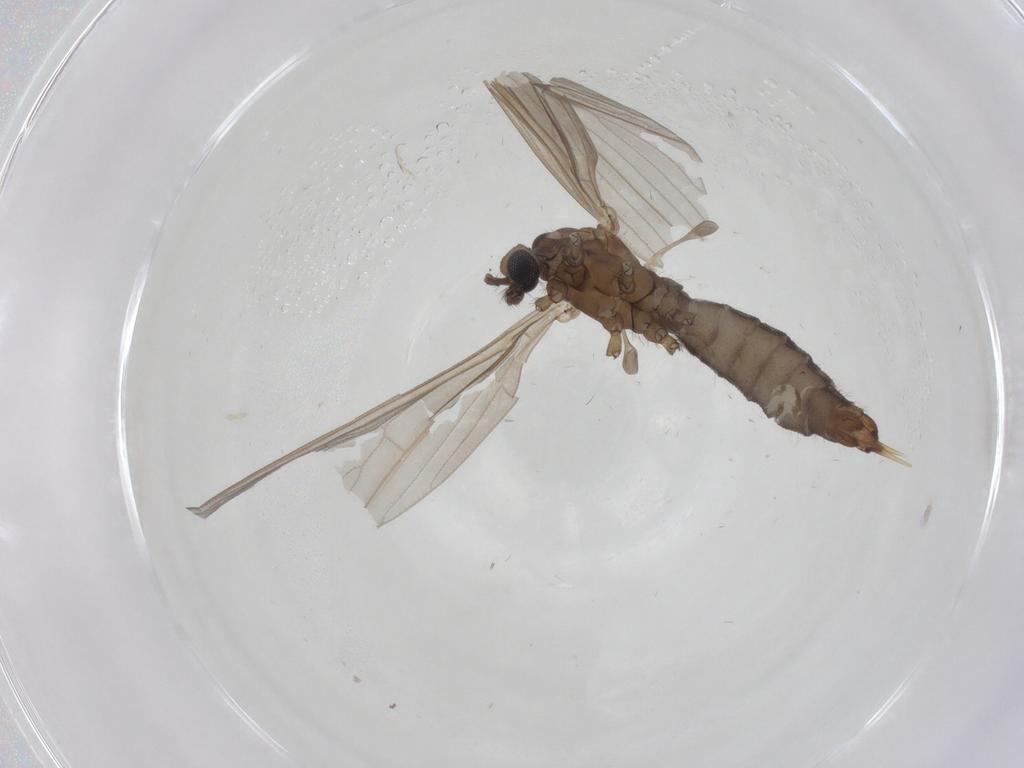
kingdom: Animalia
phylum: Arthropoda
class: Insecta
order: Diptera
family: Limoniidae
